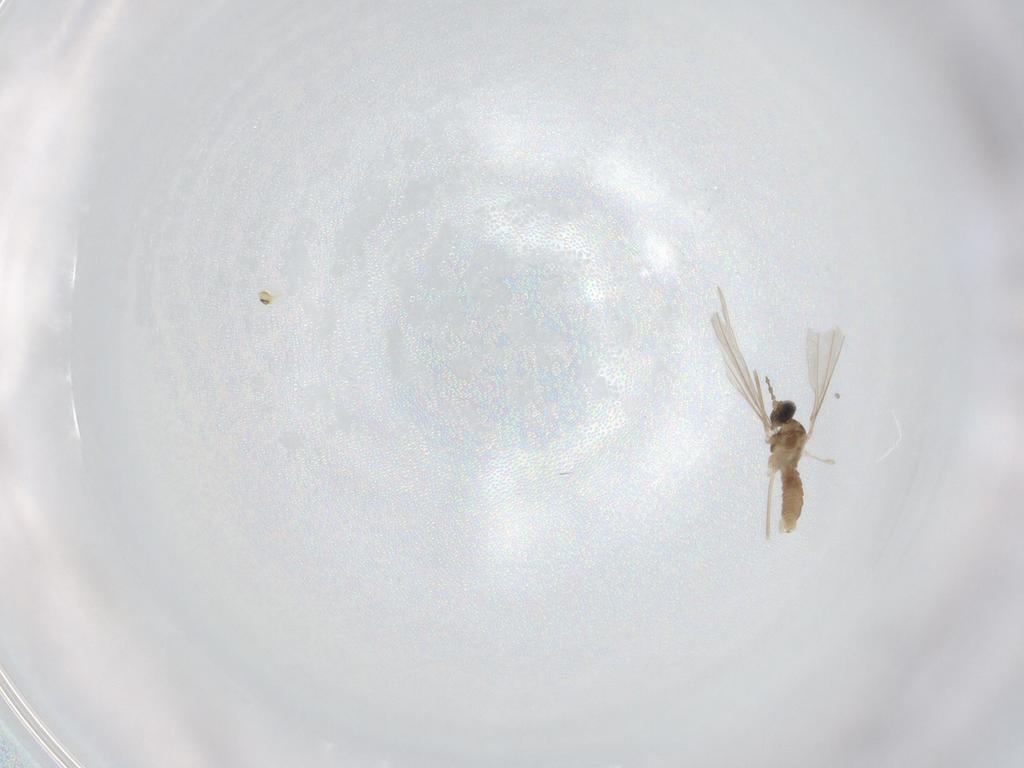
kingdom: Animalia
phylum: Arthropoda
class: Insecta
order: Diptera
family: Cecidomyiidae
